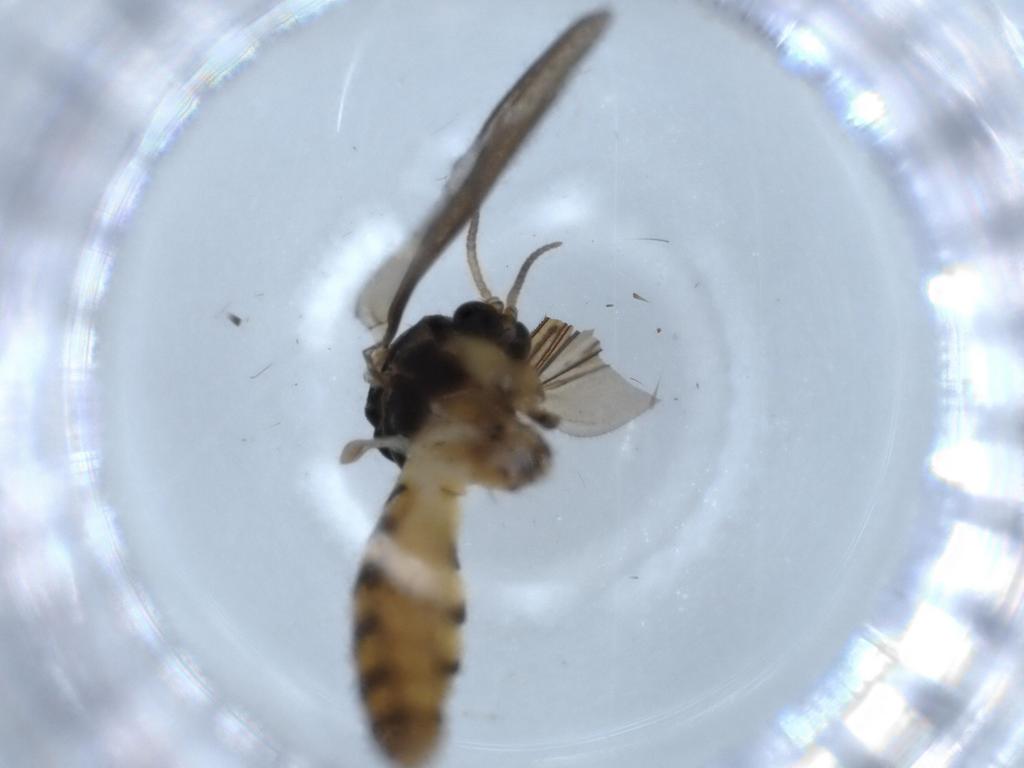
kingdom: Animalia
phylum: Arthropoda
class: Insecta
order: Diptera
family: Mycetophilidae
